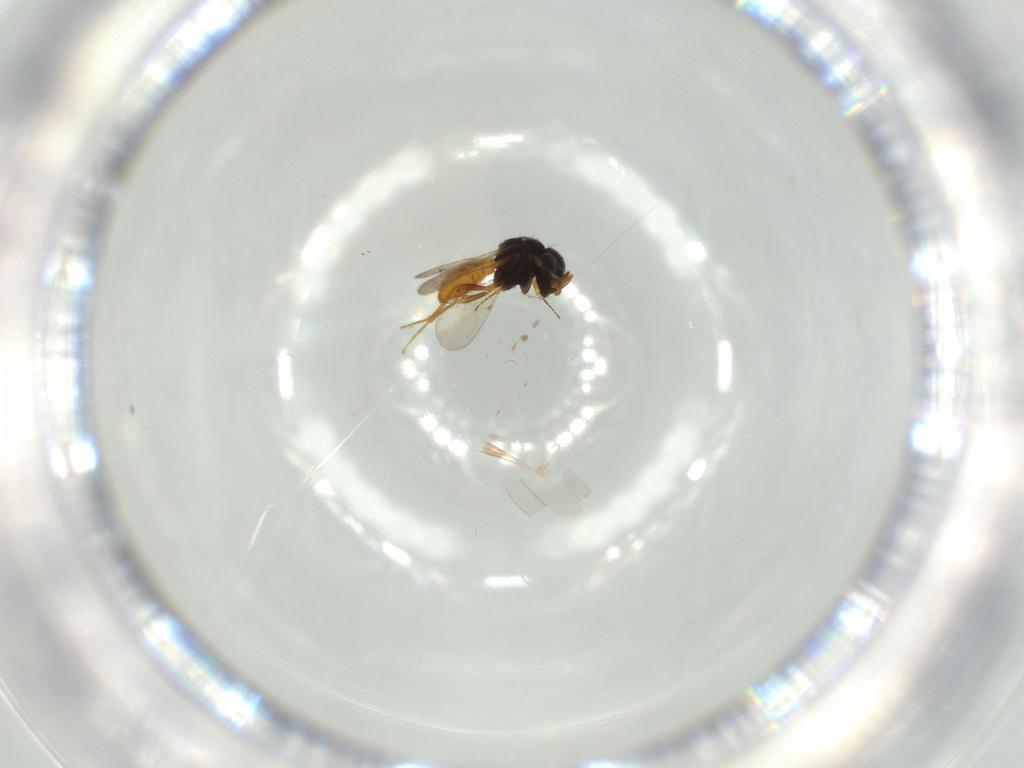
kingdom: Animalia
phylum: Arthropoda
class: Insecta
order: Hymenoptera
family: Scelionidae
